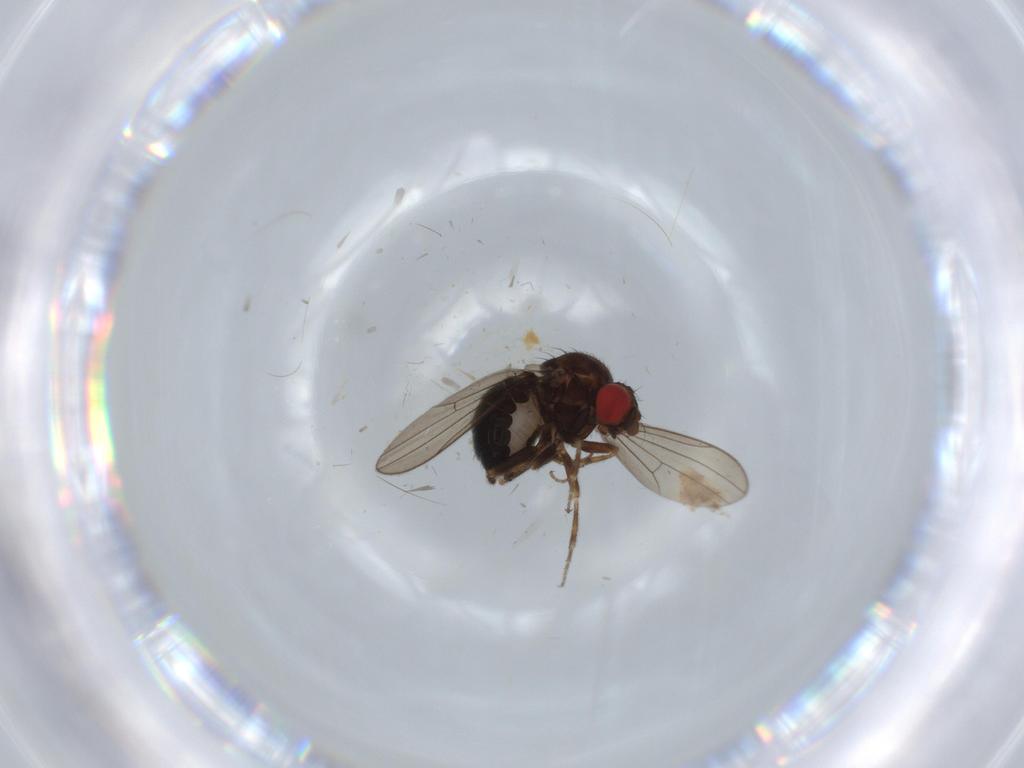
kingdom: Animalia
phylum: Arthropoda
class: Insecta
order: Diptera
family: Drosophilidae
